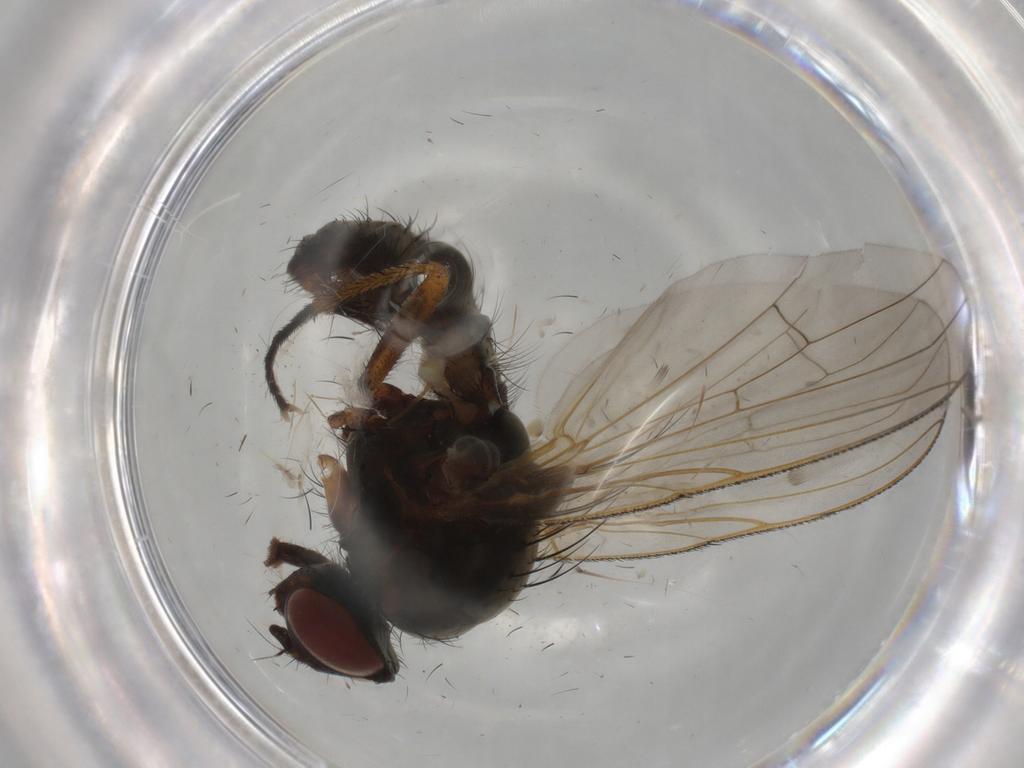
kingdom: Animalia
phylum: Arthropoda
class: Insecta
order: Diptera
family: Anthomyiidae
